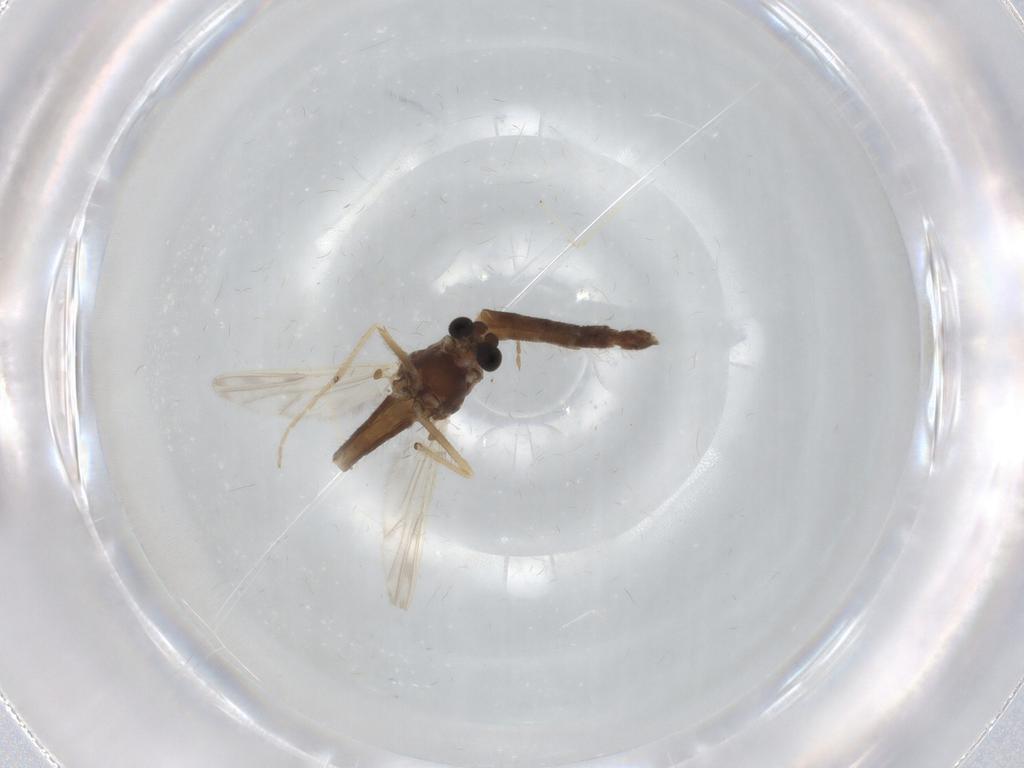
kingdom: Animalia
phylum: Arthropoda
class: Insecta
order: Diptera
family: Chironomidae
